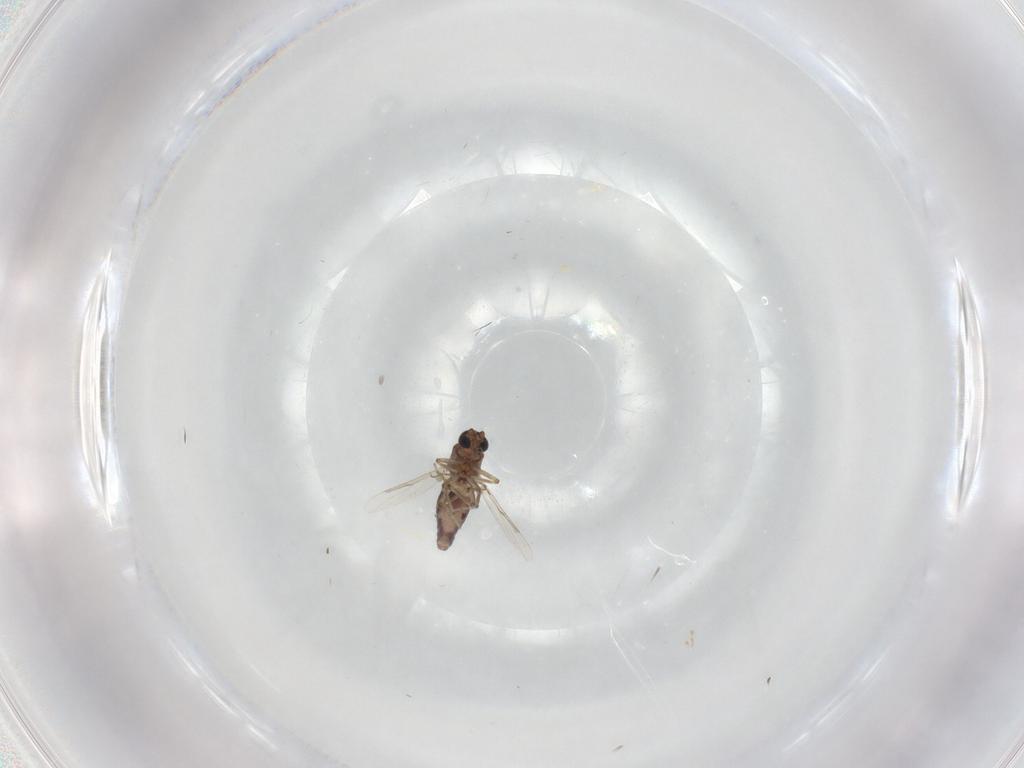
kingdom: Animalia
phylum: Arthropoda
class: Insecta
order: Diptera
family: Ceratopogonidae
